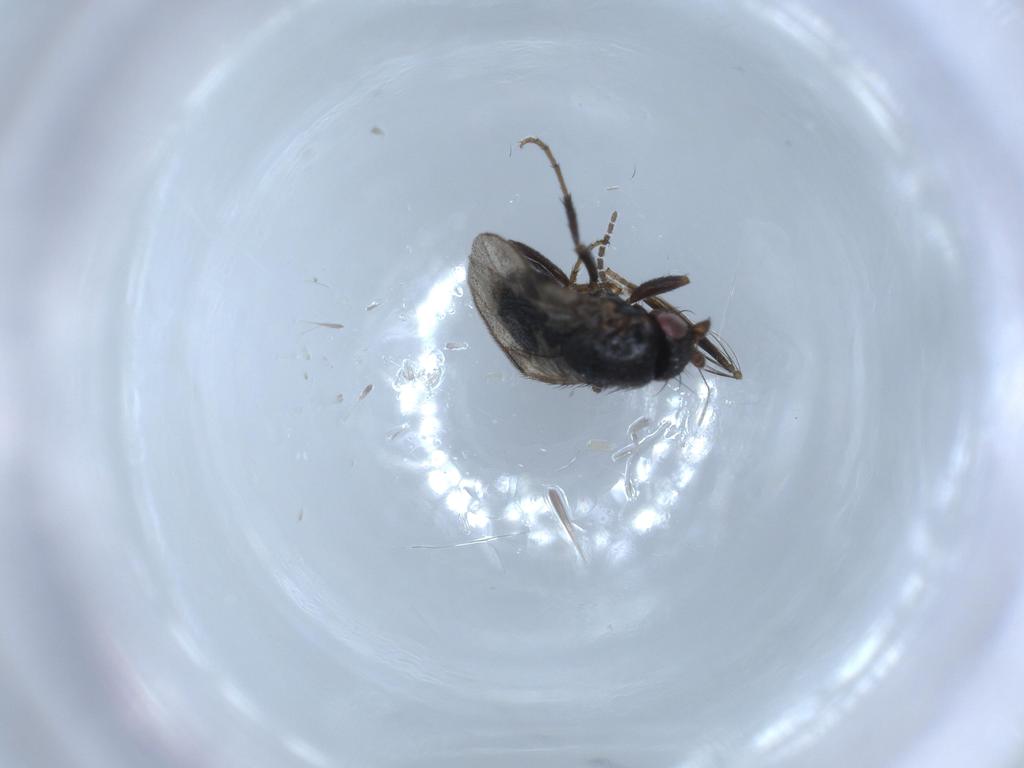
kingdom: Animalia
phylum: Arthropoda
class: Insecta
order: Diptera
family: Ceratopogonidae
